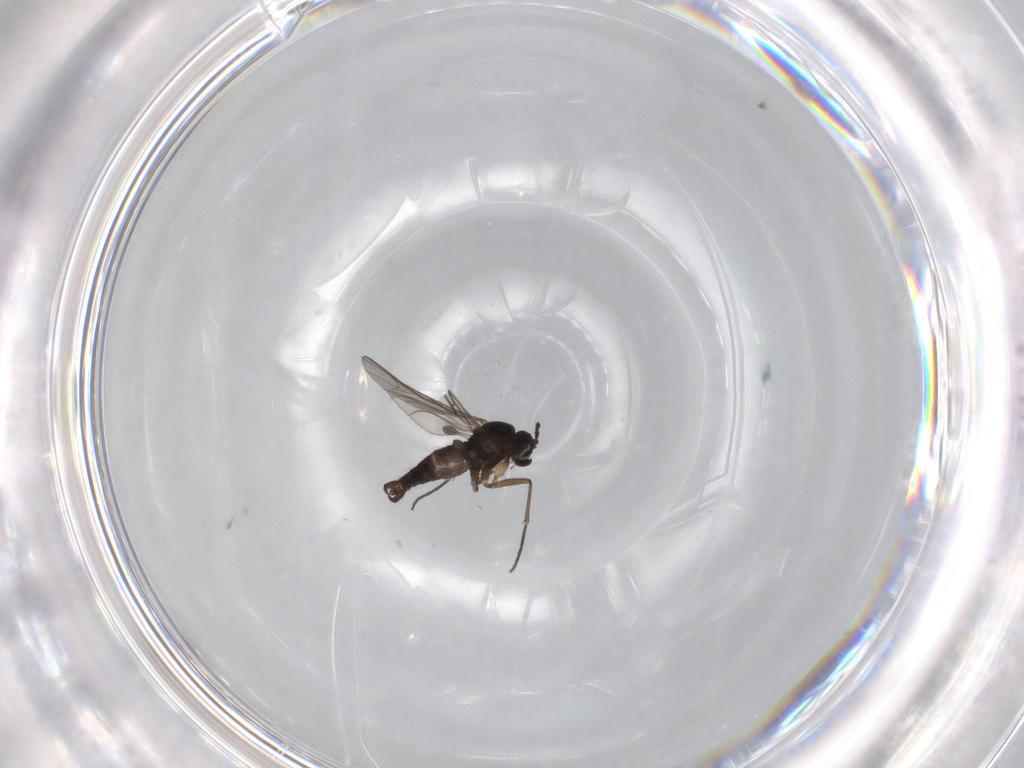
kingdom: Animalia
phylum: Arthropoda
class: Insecta
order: Diptera
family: Sciaridae
